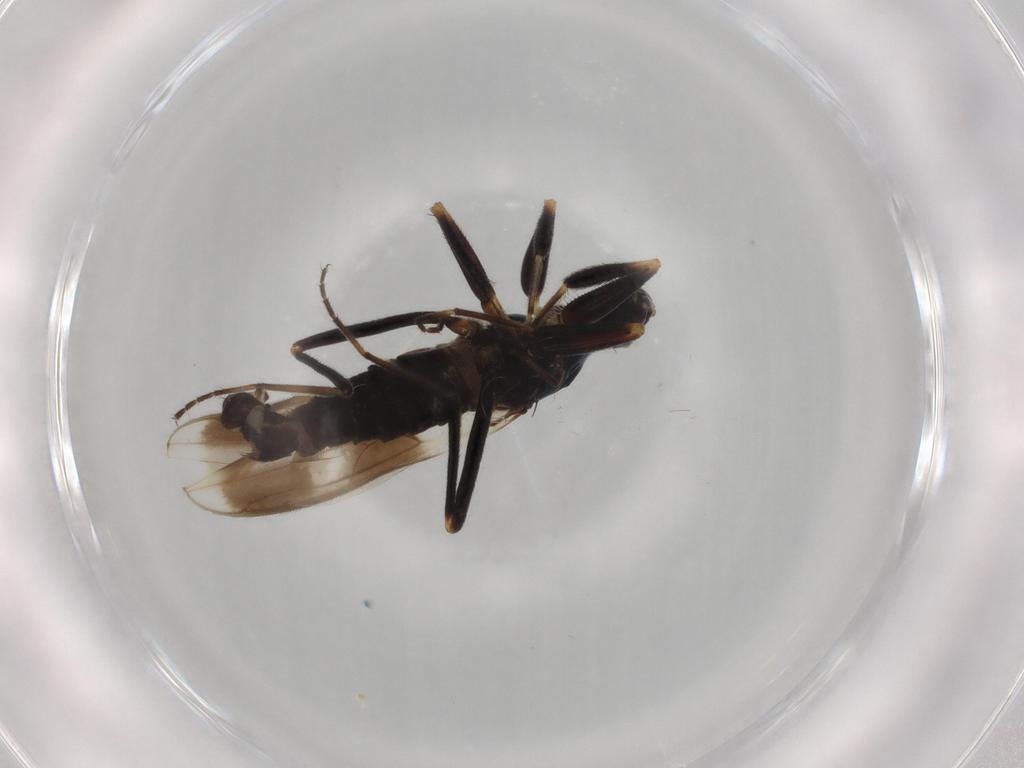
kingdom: Animalia
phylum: Arthropoda
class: Insecta
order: Diptera
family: Hybotidae
